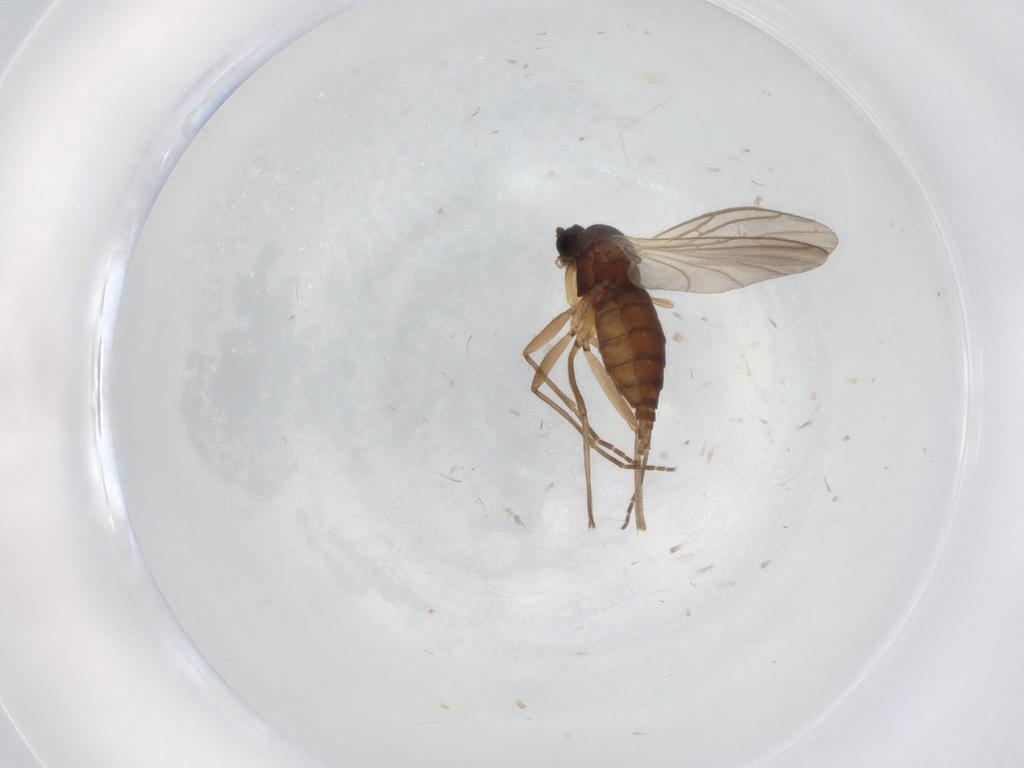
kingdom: Animalia
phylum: Arthropoda
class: Insecta
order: Diptera
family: Sciaridae
